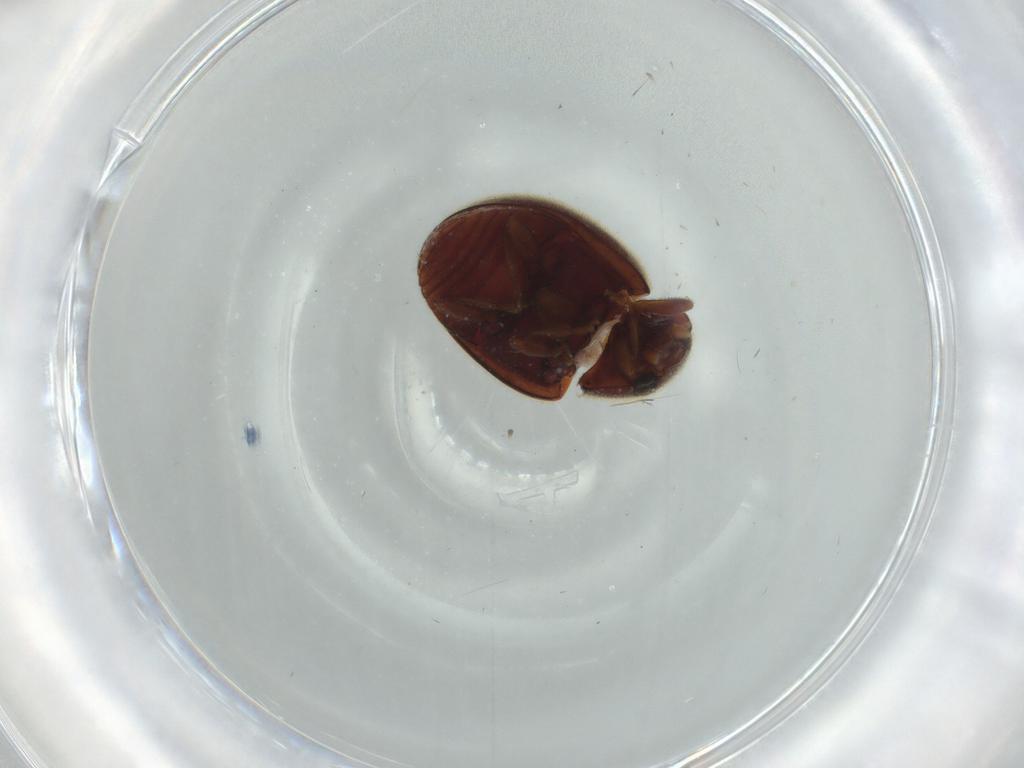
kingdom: Animalia
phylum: Arthropoda
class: Insecta
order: Coleoptera
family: Coccinellidae
